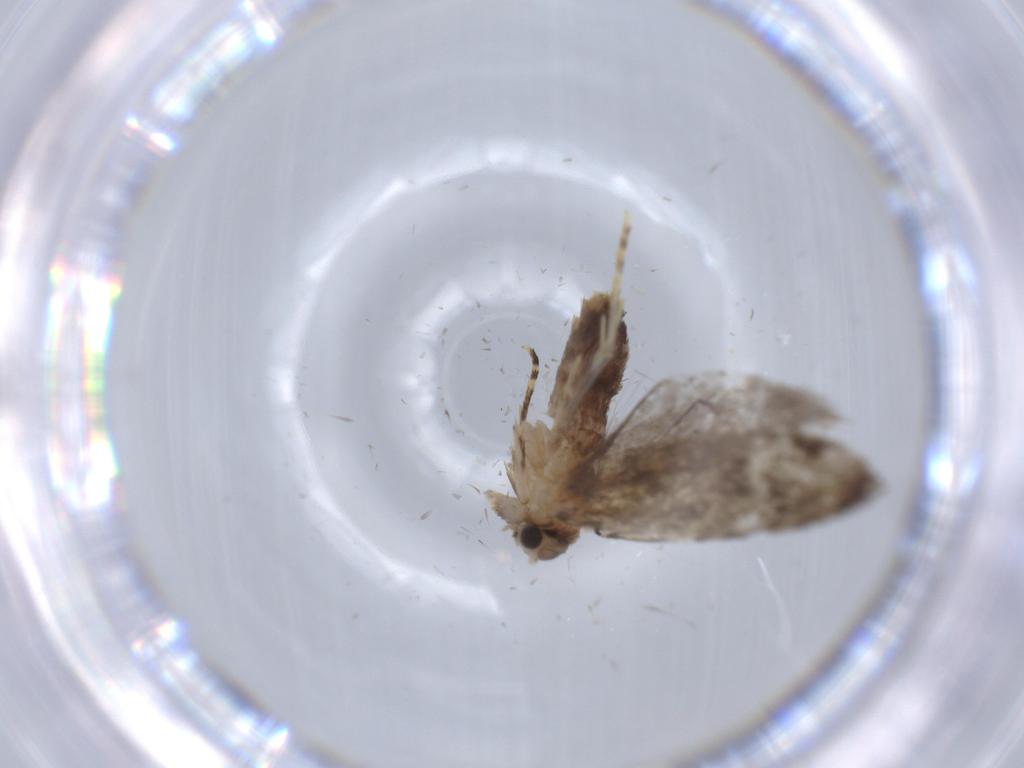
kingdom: Animalia
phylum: Arthropoda
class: Insecta
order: Lepidoptera
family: Tineidae
